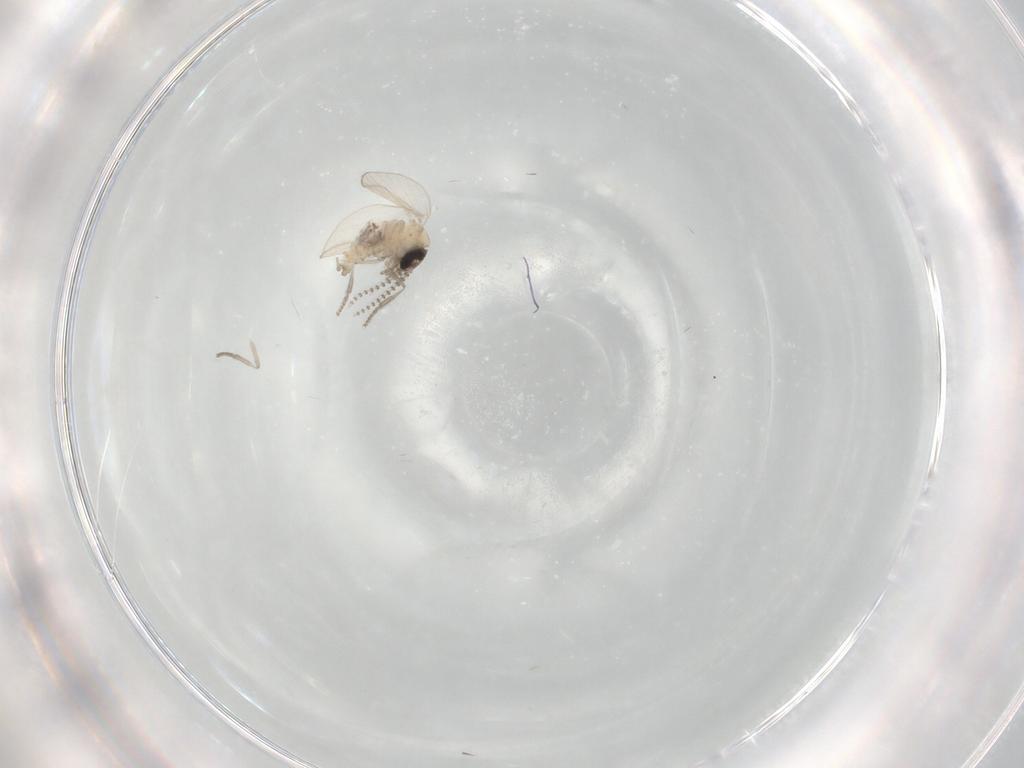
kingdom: Animalia
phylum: Arthropoda
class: Insecta
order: Diptera
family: Psychodidae
